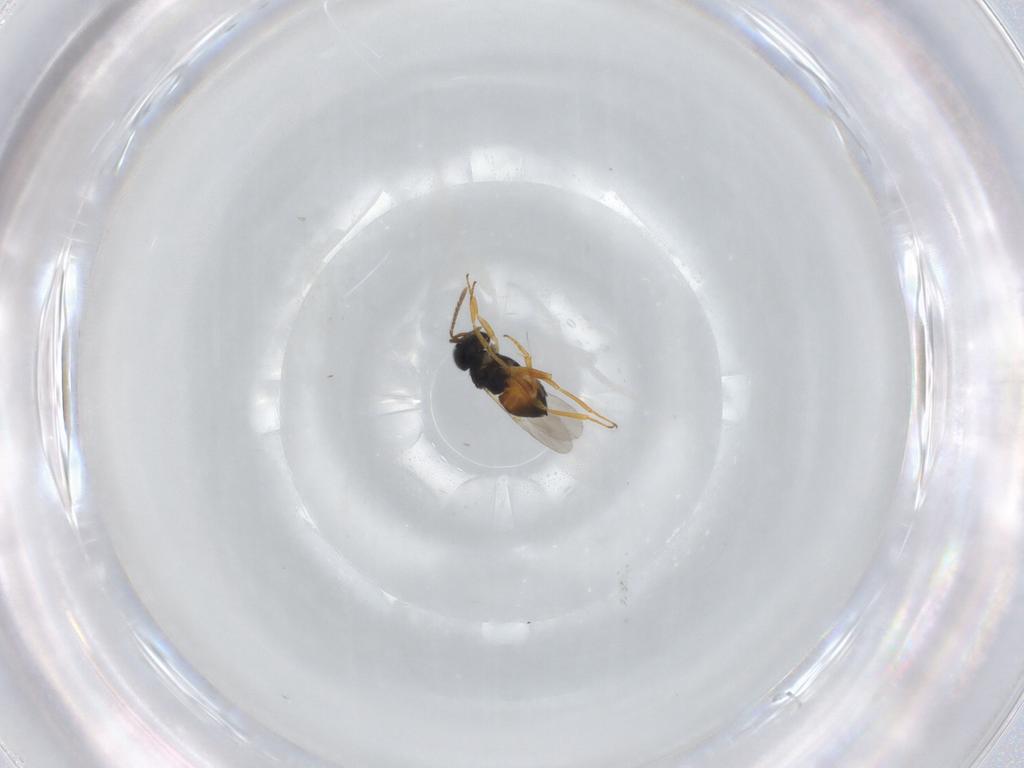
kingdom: Animalia
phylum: Arthropoda
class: Insecta
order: Hymenoptera
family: Encyrtidae
